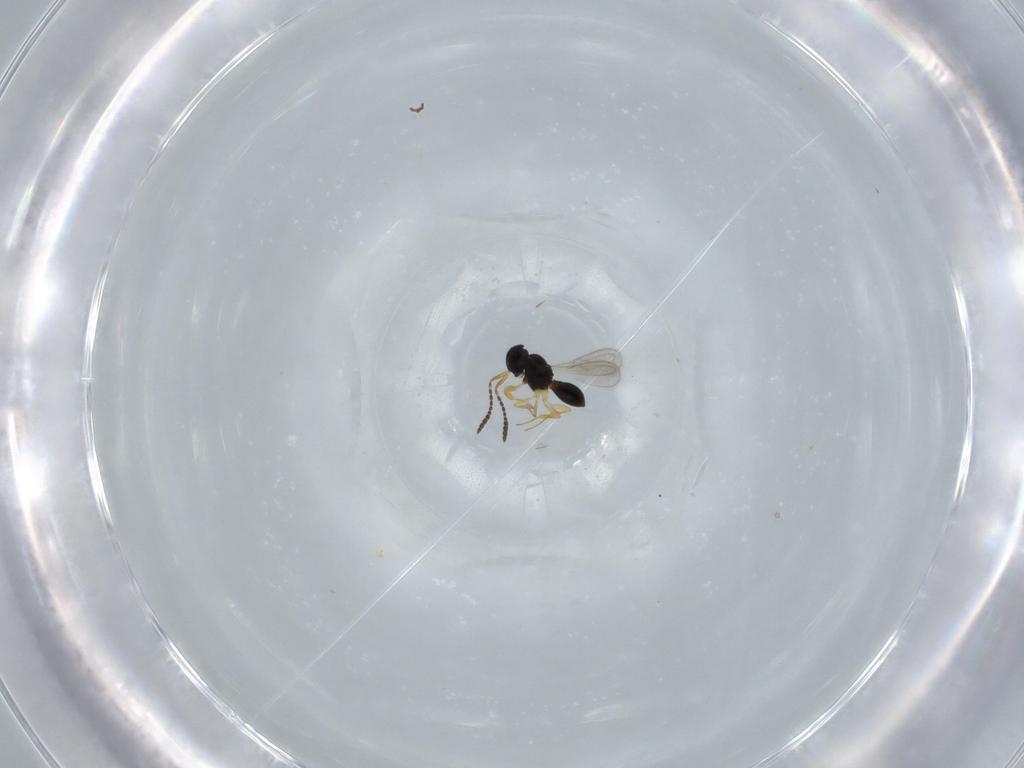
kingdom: Animalia
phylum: Arthropoda
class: Insecta
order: Hymenoptera
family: Scelionidae
